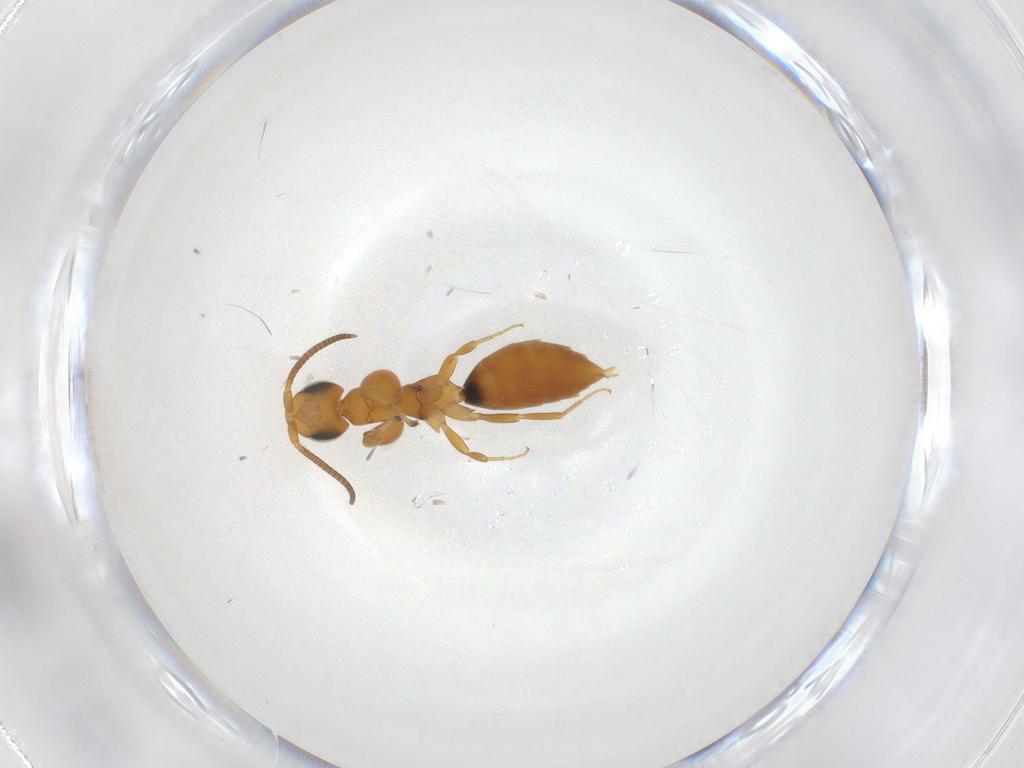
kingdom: Animalia
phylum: Arthropoda
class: Insecta
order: Hymenoptera
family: Sclerogibbidae
